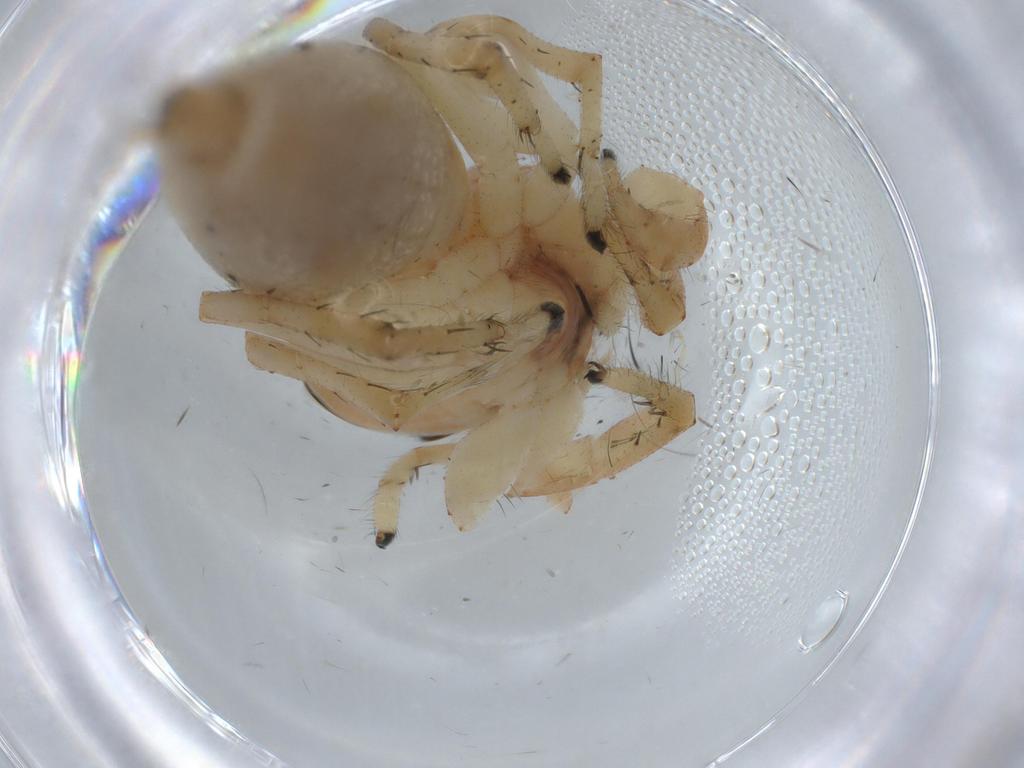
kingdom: Animalia
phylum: Arthropoda
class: Arachnida
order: Araneae
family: Salticidae
